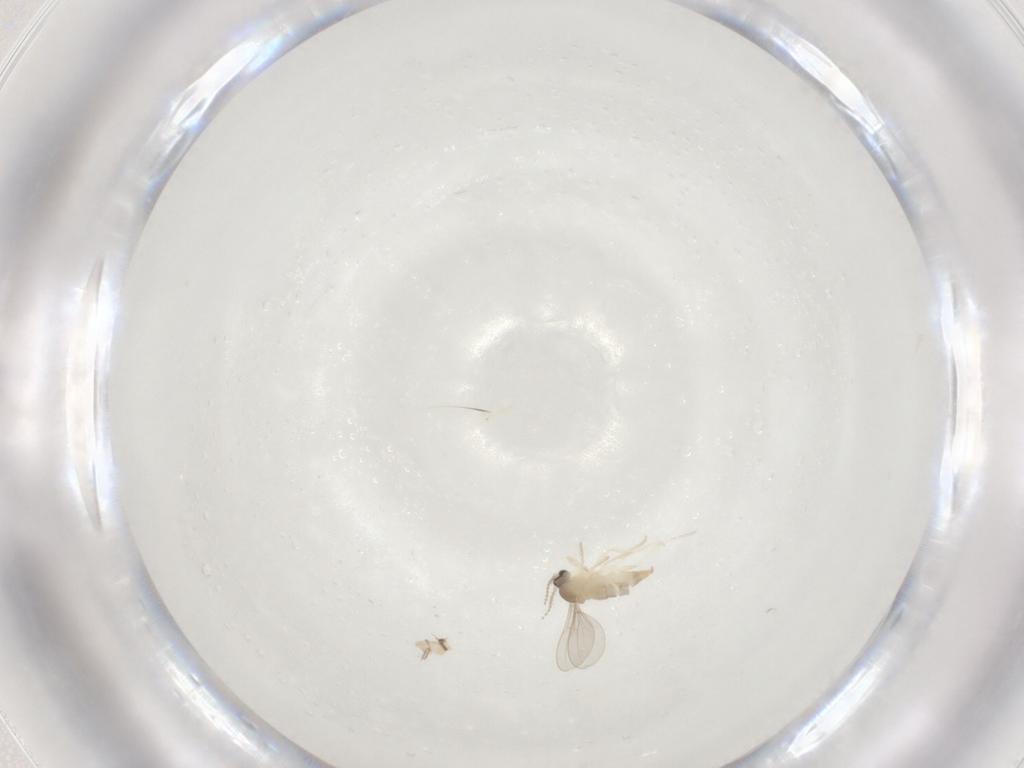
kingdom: Animalia
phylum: Arthropoda
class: Insecta
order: Diptera
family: Cecidomyiidae
